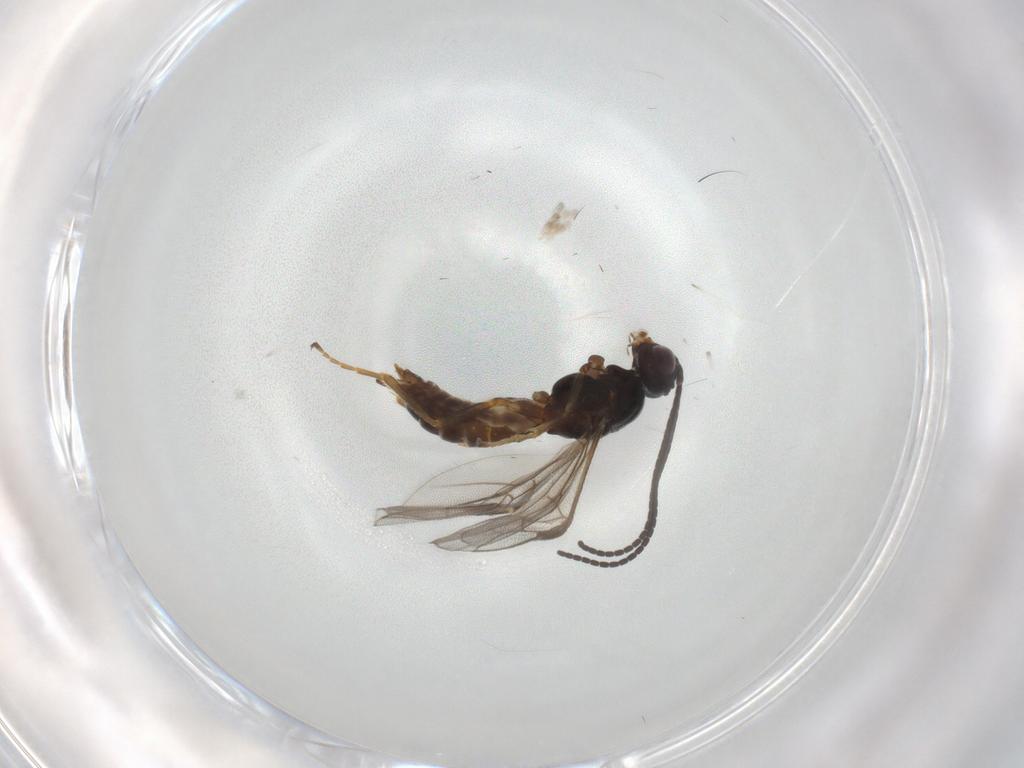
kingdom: Animalia
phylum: Arthropoda
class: Insecta
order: Hymenoptera
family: Braconidae
